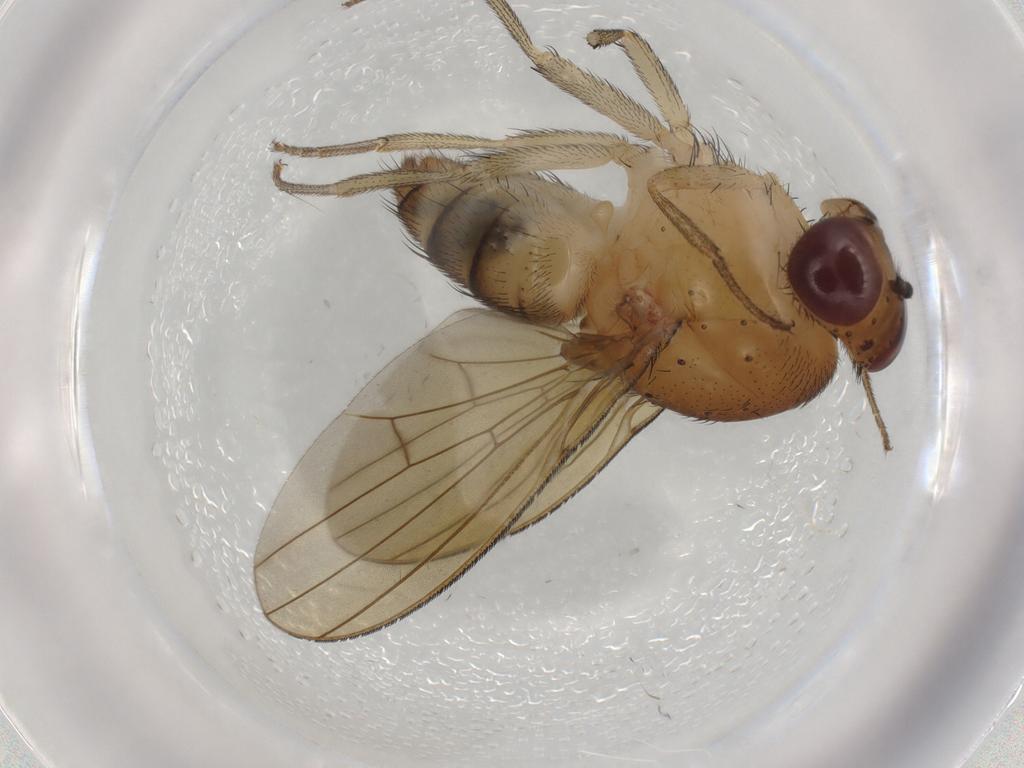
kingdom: Animalia
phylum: Arthropoda
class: Insecta
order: Diptera
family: Sciaridae
